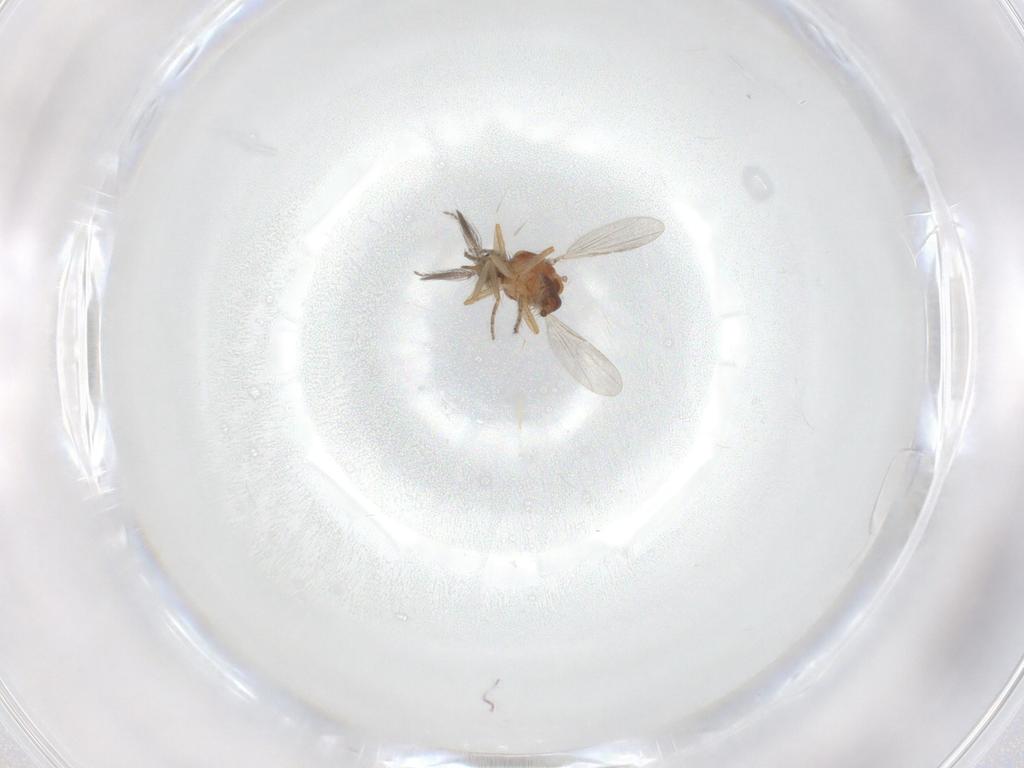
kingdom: Animalia
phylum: Arthropoda
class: Insecta
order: Diptera
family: Ceratopogonidae
